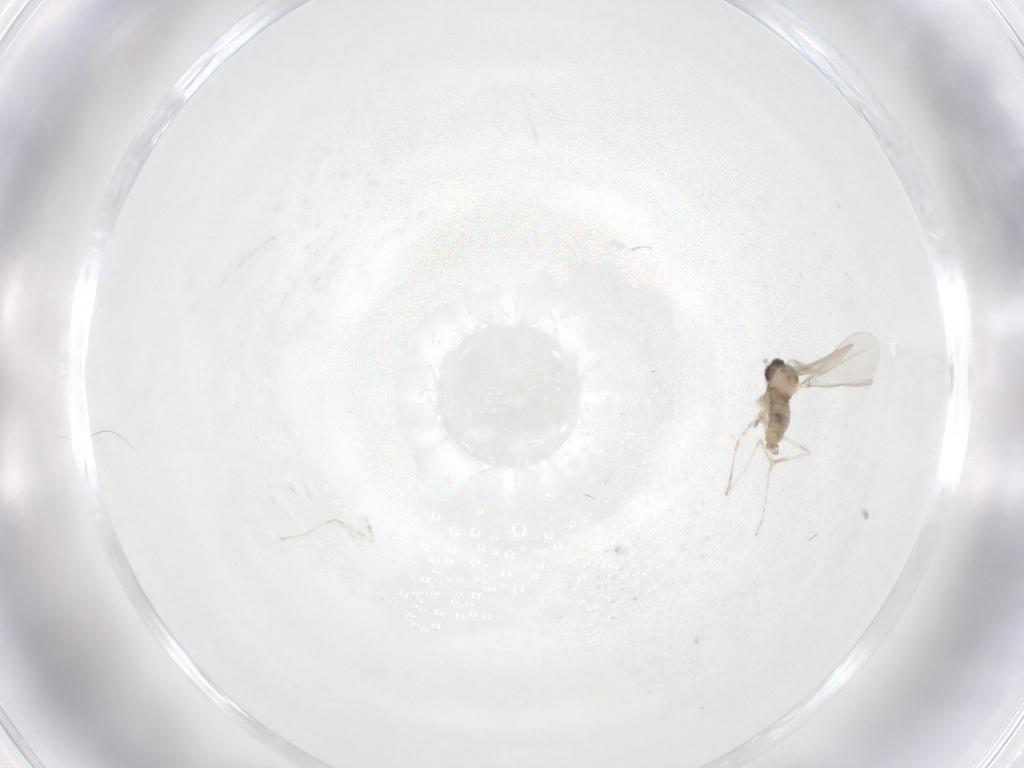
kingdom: Animalia
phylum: Arthropoda
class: Insecta
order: Diptera
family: Cecidomyiidae
